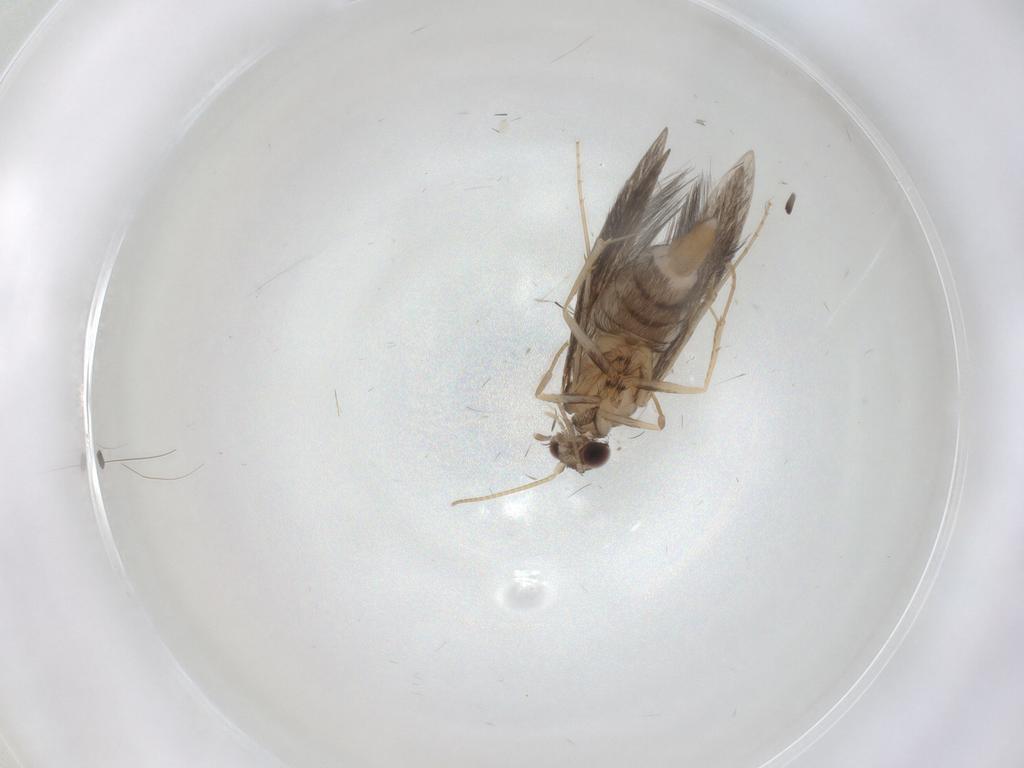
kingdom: Animalia
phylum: Arthropoda
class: Insecta
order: Trichoptera
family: Hydroptilidae
